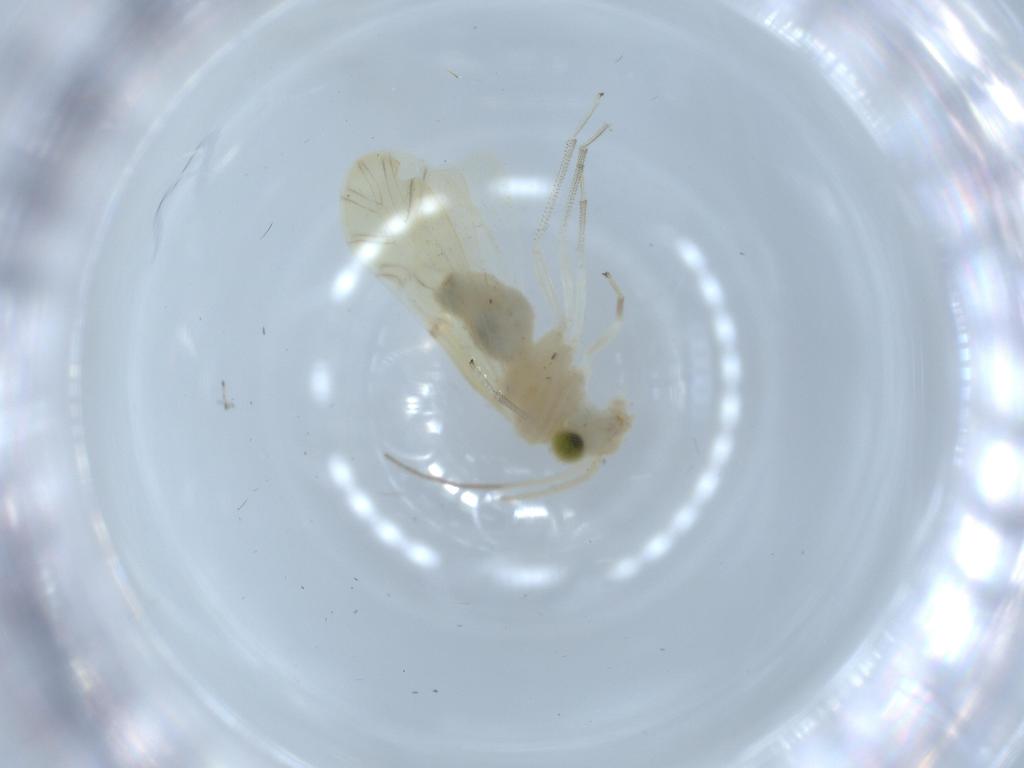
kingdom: Animalia
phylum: Arthropoda
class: Insecta
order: Psocodea
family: Caeciliusidae
